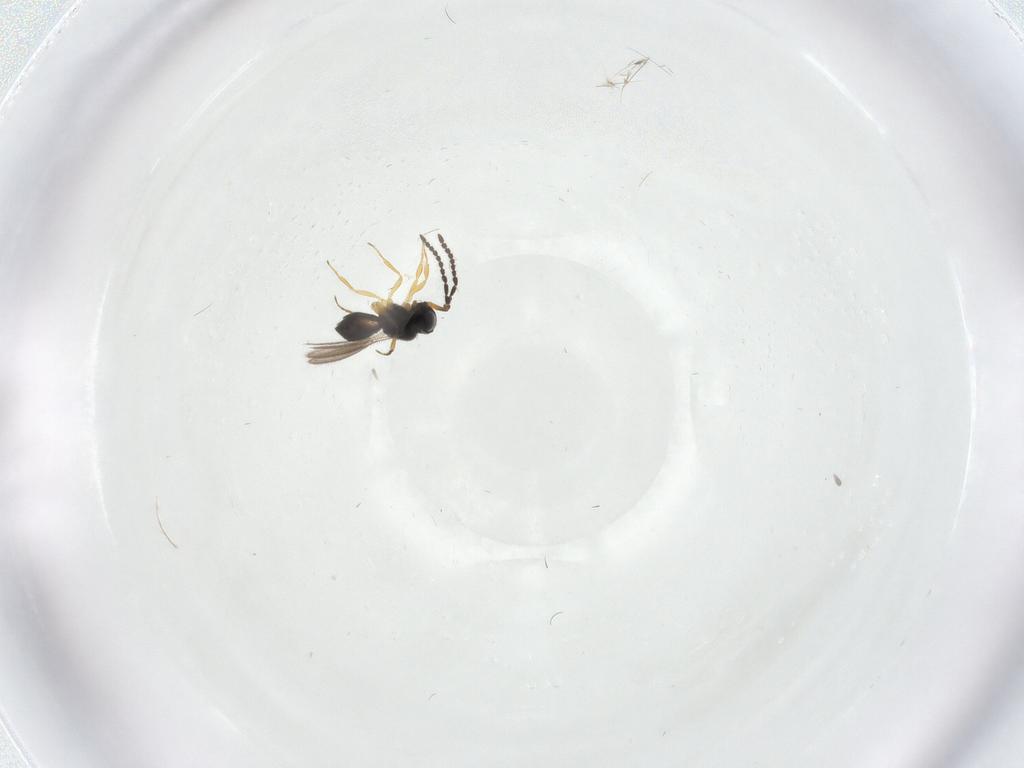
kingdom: Animalia
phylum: Arthropoda
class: Insecta
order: Hymenoptera
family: Scelionidae
